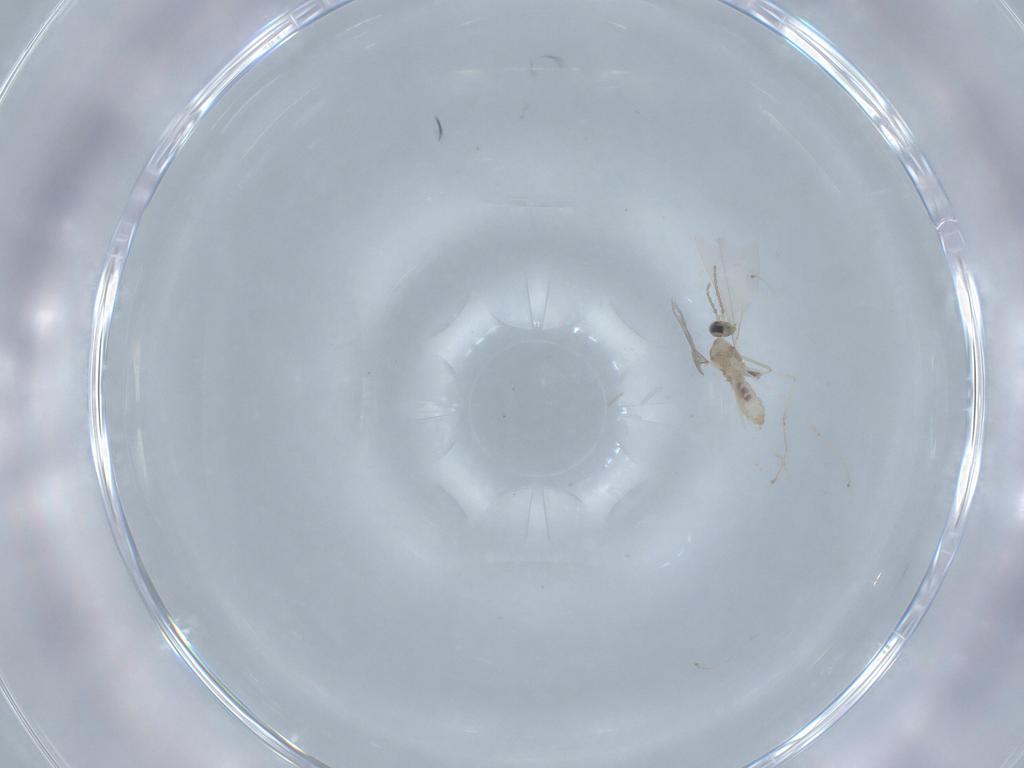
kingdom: Animalia
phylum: Arthropoda
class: Insecta
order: Diptera
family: Cecidomyiidae
